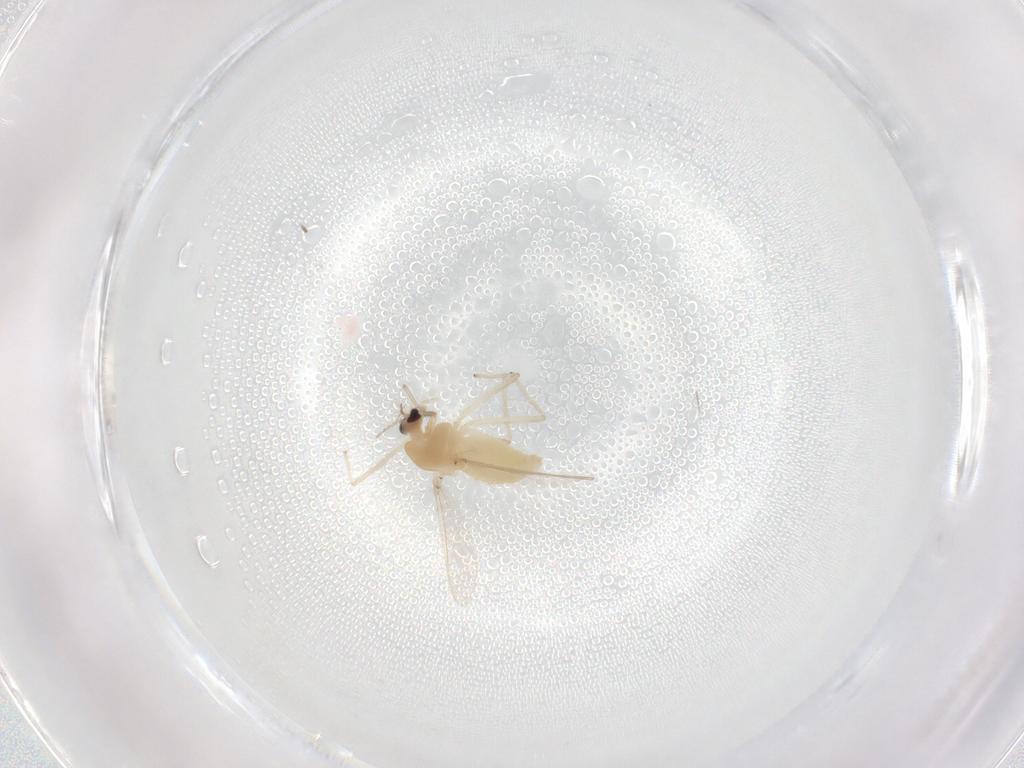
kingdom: Animalia
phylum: Arthropoda
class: Insecta
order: Diptera
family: Chironomidae
